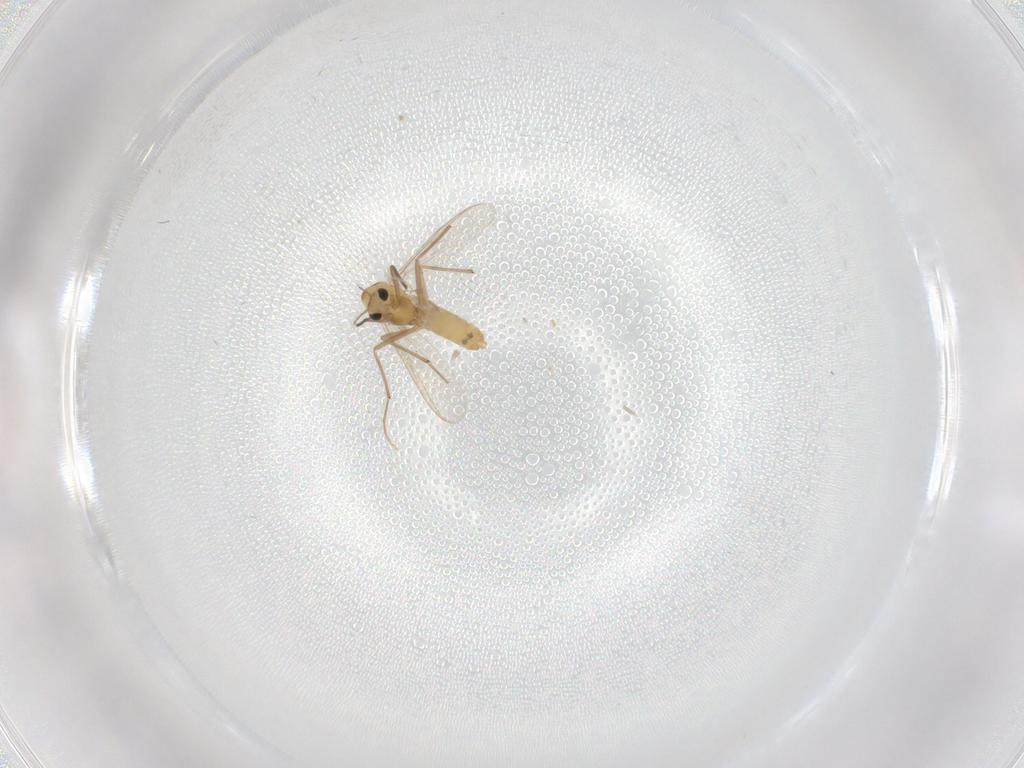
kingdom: Animalia
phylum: Arthropoda
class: Insecta
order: Diptera
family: Chironomidae
